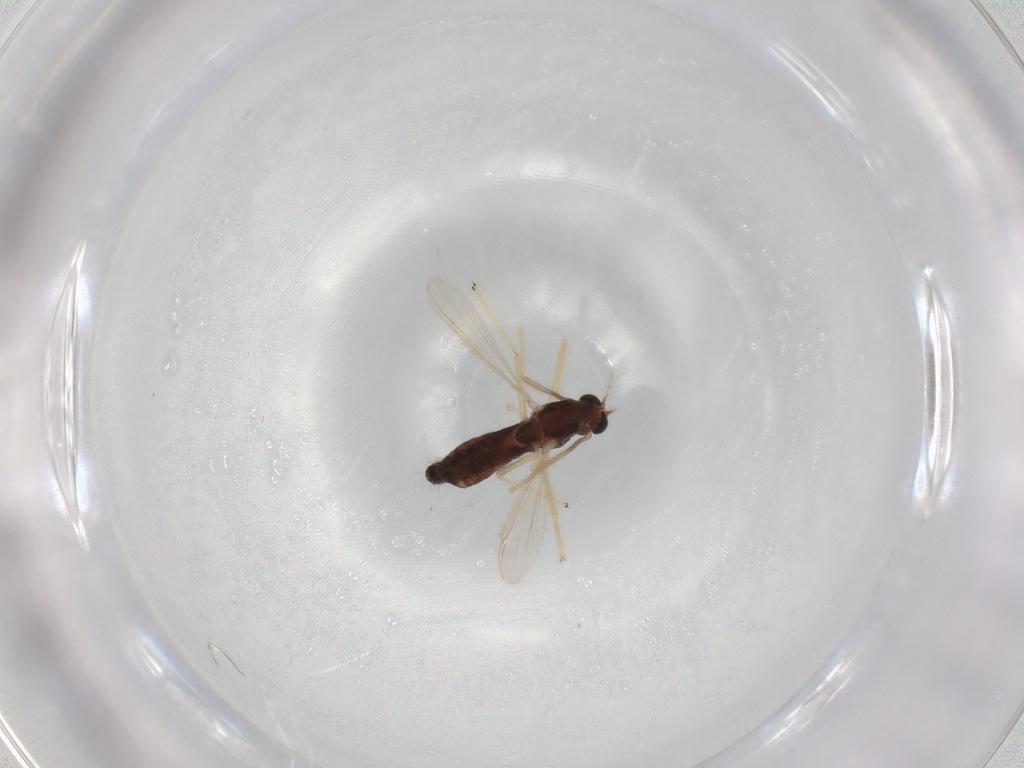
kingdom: Animalia
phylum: Arthropoda
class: Insecta
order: Diptera
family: Chironomidae
